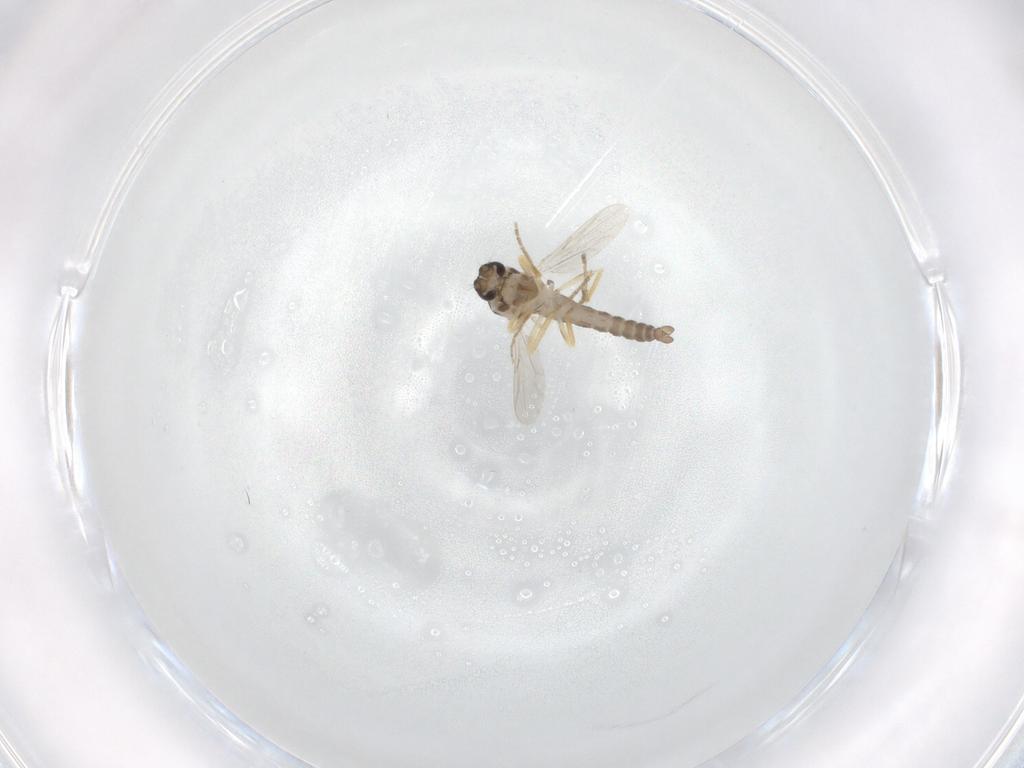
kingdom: Animalia
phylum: Arthropoda
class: Insecta
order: Diptera
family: Ceratopogonidae
